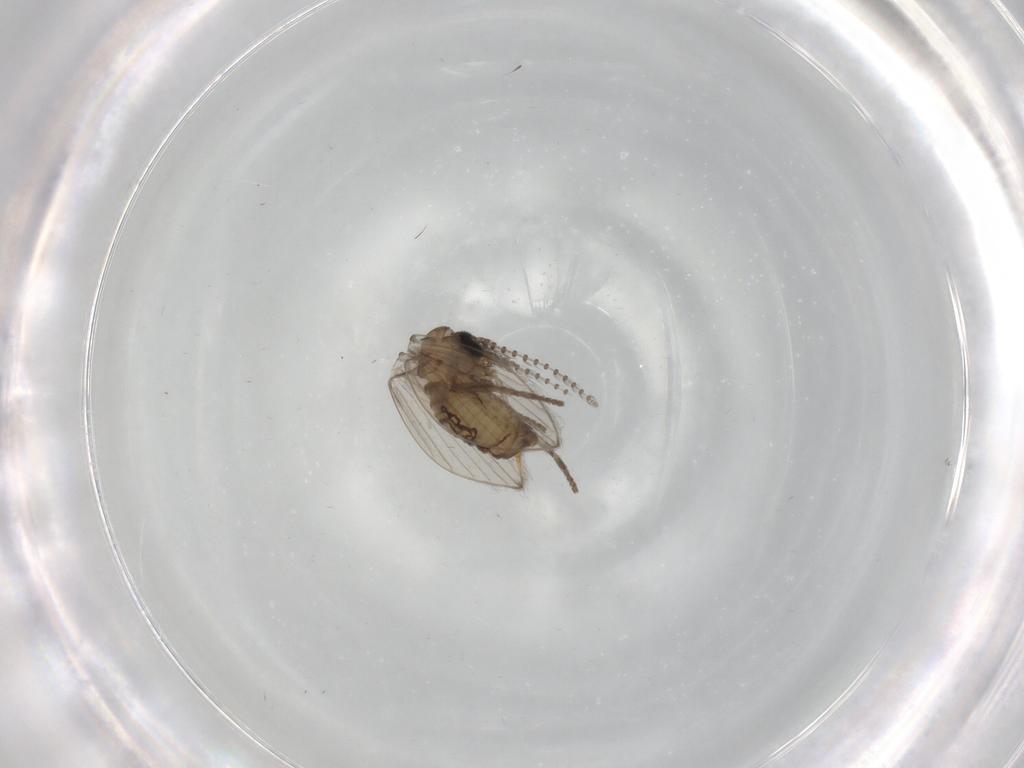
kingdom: Animalia
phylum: Arthropoda
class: Insecta
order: Diptera
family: Psychodidae
